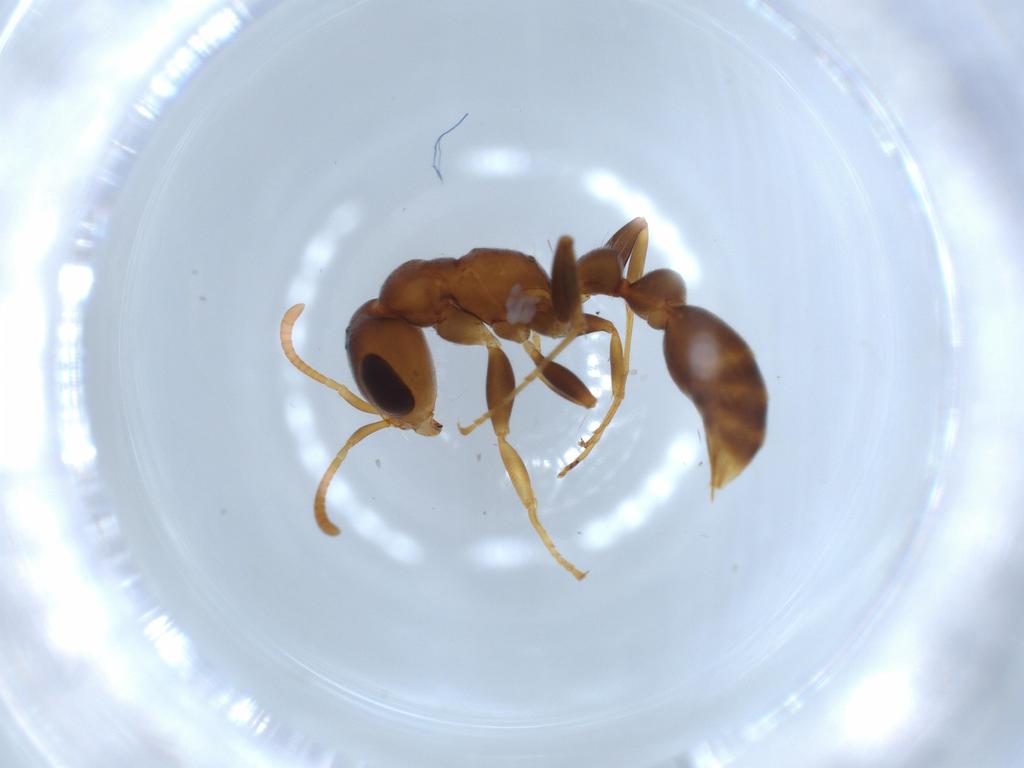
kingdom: Animalia
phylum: Arthropoda
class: Insecta
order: Hymenoptera
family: Formicidae
